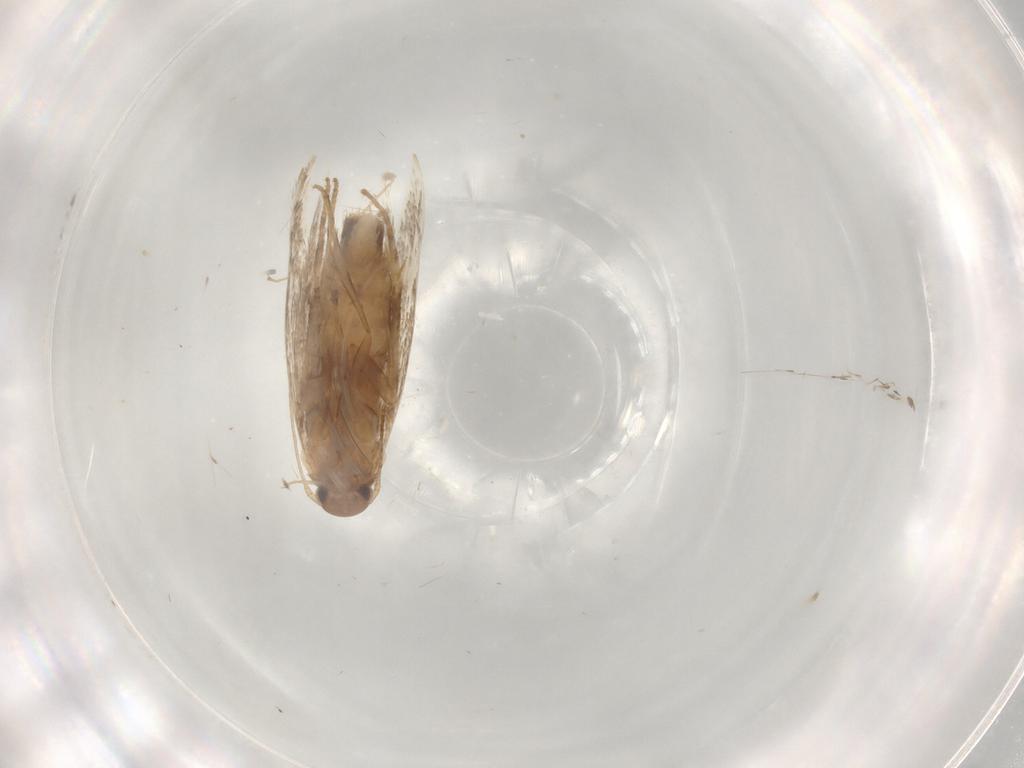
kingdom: Animalia
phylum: Arthropoda
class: Insecta
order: Lepidoptera
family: Elachistidae
